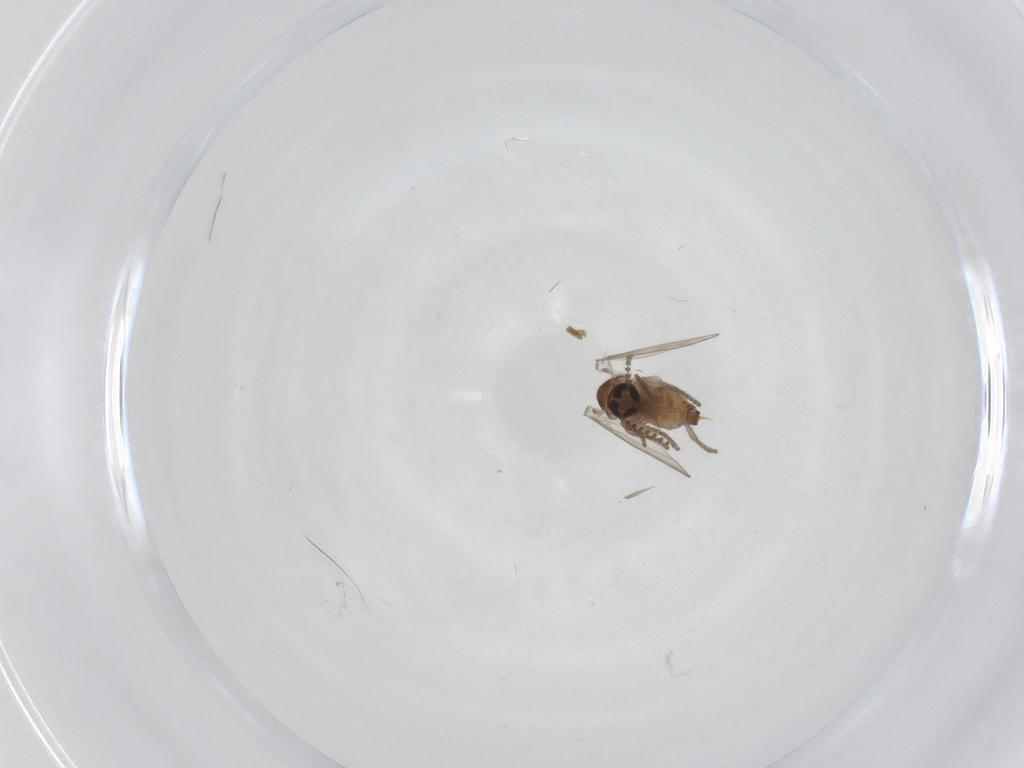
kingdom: Animalia
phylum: Arthropoda
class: Insecta
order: Diptera
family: Psychodidae
